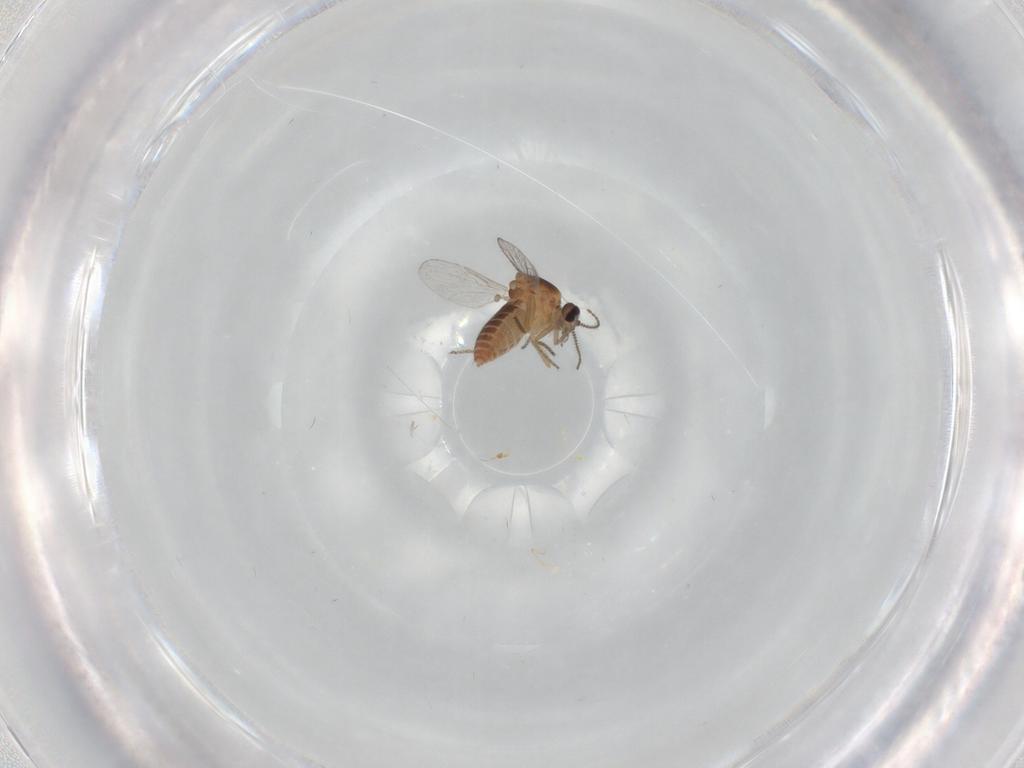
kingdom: Animalia
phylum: Arthropoda
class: Insecta
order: Diptera
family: Ceratopogonidae
